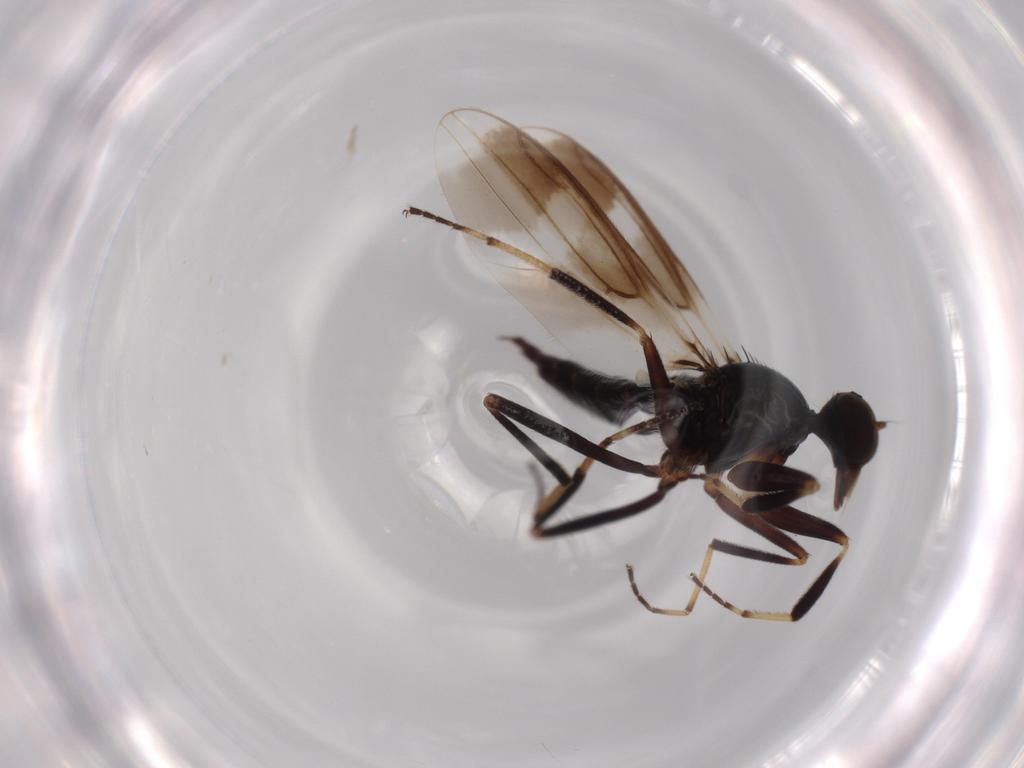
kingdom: Animalia
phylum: Arthropoda
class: Insecta
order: Diptera
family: Hybotidae
